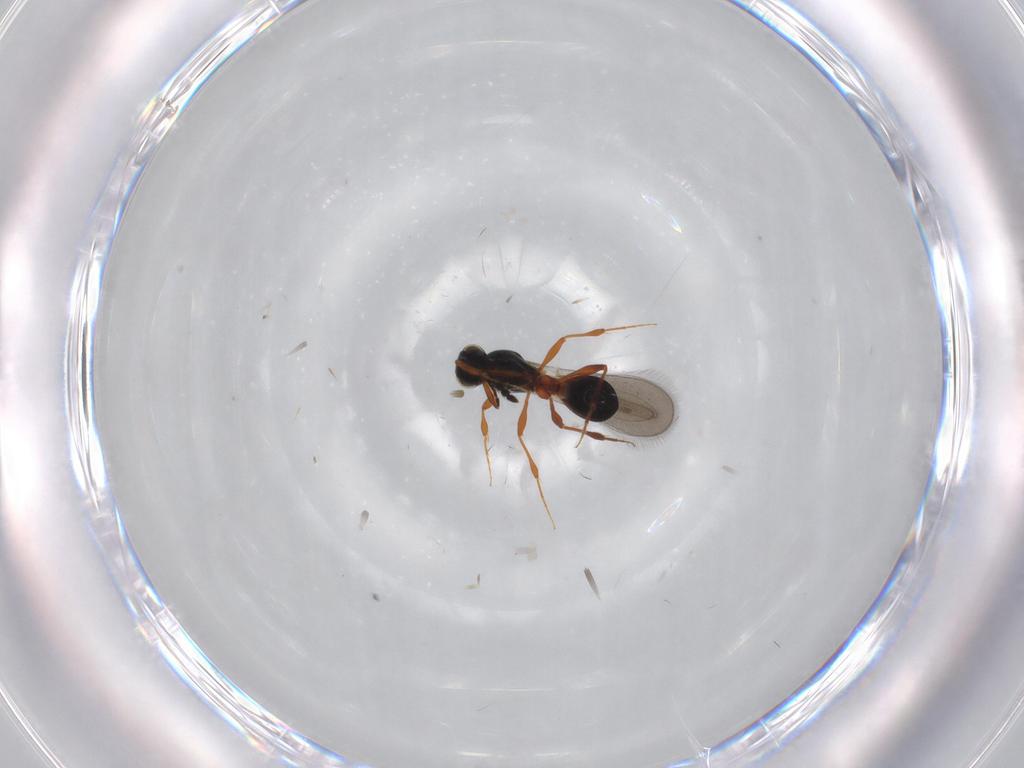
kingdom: Animalia
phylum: Arthropoda
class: Insecta
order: Hymenoptera
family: Platygastridae
